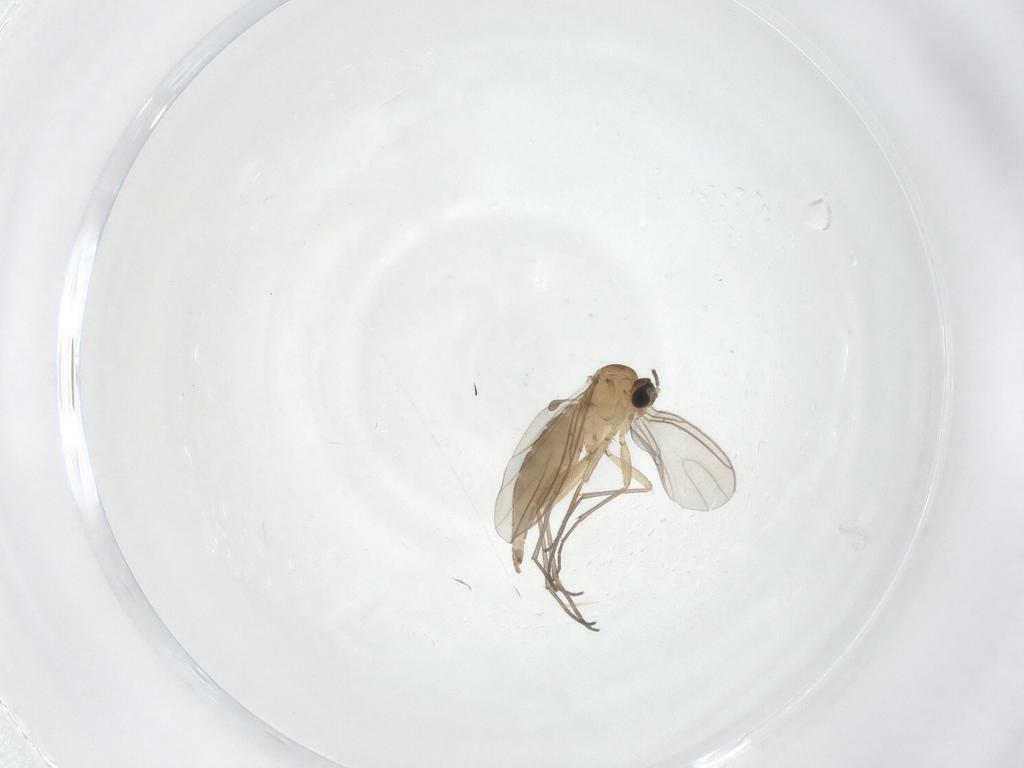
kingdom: Animalia
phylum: Arthropoda
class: Insecta
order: Diptera
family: Sciaridae
